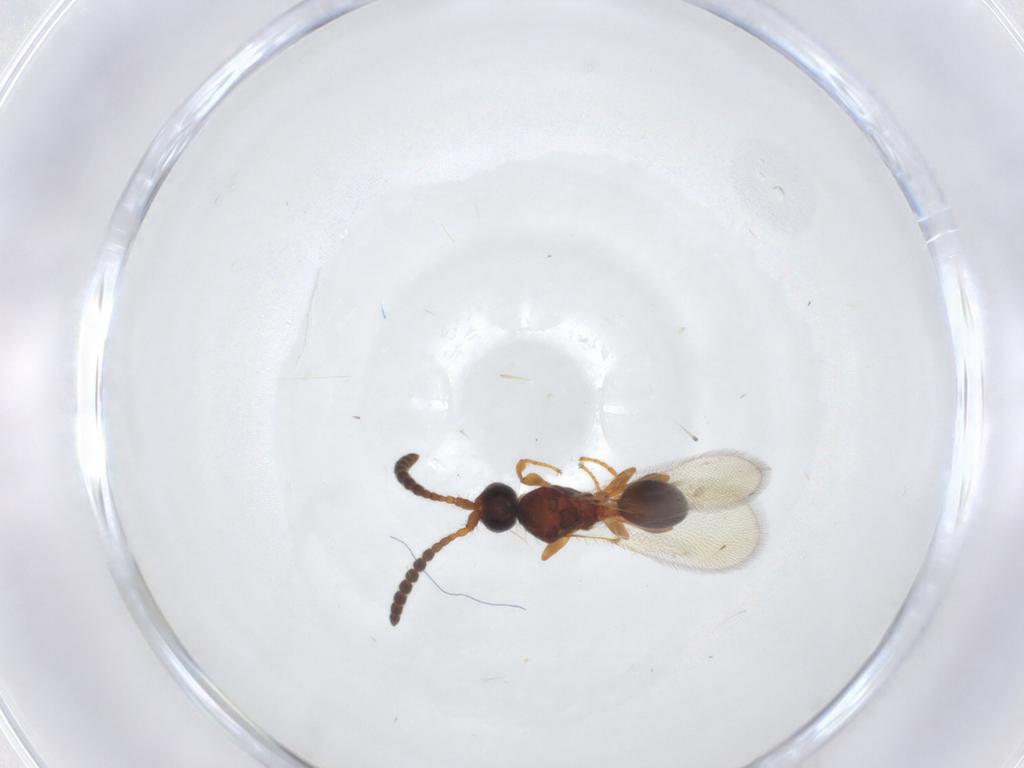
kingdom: Animalia
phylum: Arthropoda
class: Insecta
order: Hymenoptera
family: Diapriidae
